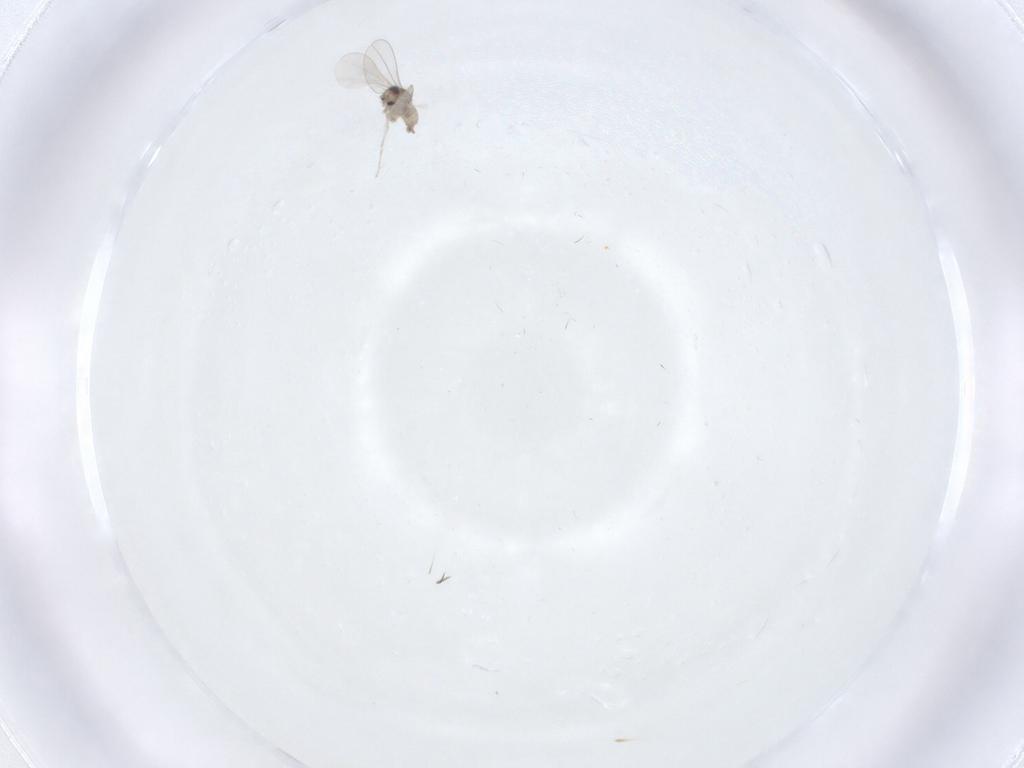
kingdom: Animalia
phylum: Arthropoda
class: Insecta
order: Diptera
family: Cecidomyiidae
